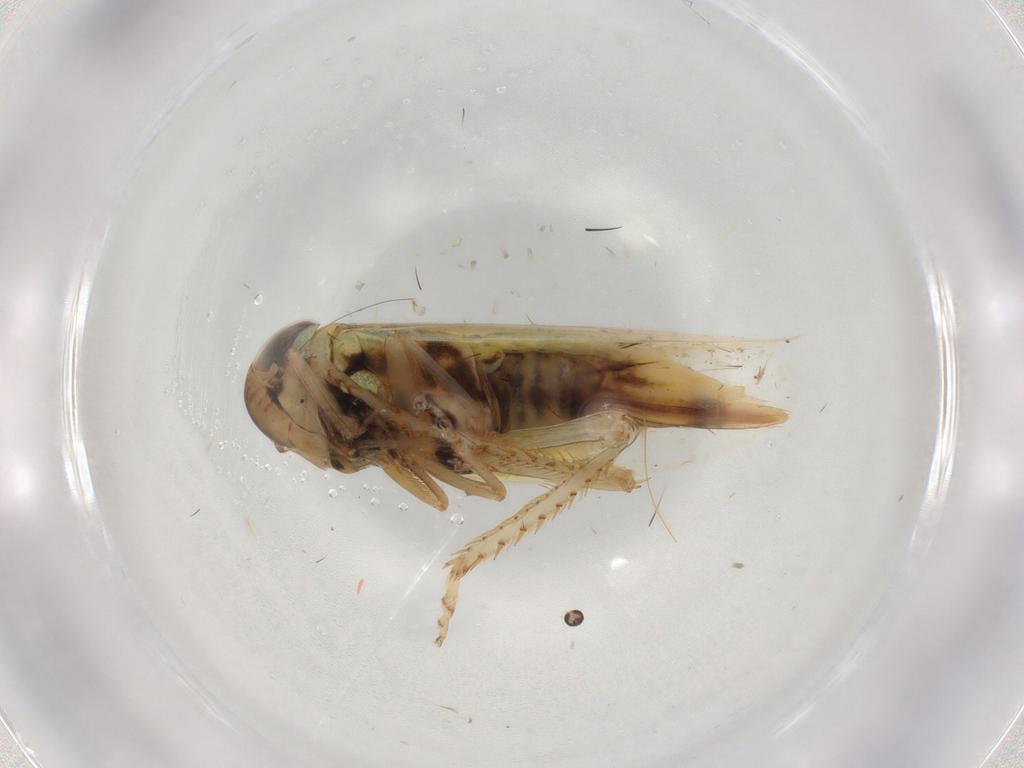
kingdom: Animalia
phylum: Arthropoda
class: Insecta
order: Hemiptera
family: Cicadellidae
